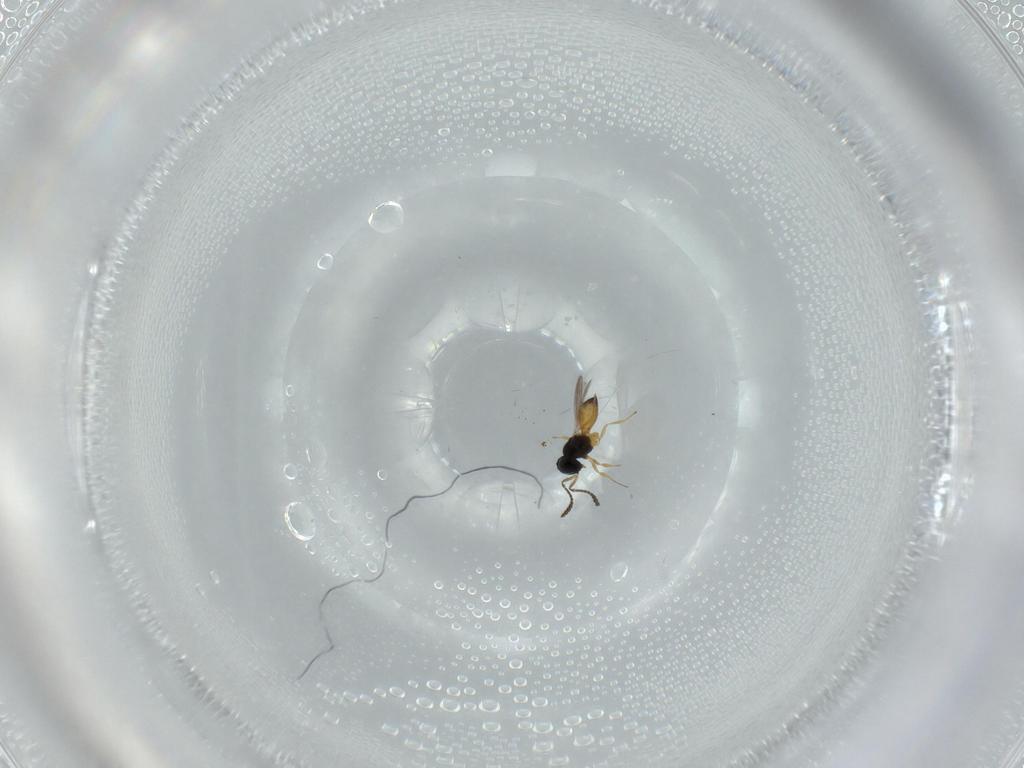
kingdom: Animalia
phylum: Arthropoda
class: Insecta
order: Hymenoptera
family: Scelionidae
